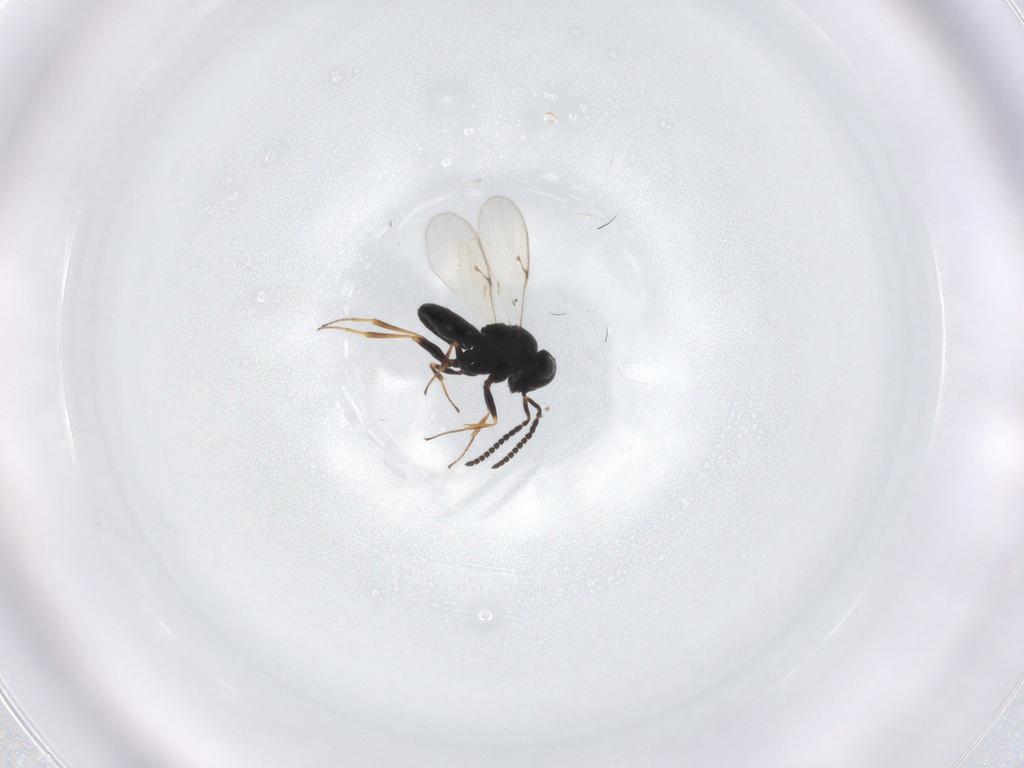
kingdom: Animalia
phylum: Arthropoda
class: Insecta
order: Hymenoptera
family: Scelionidae
